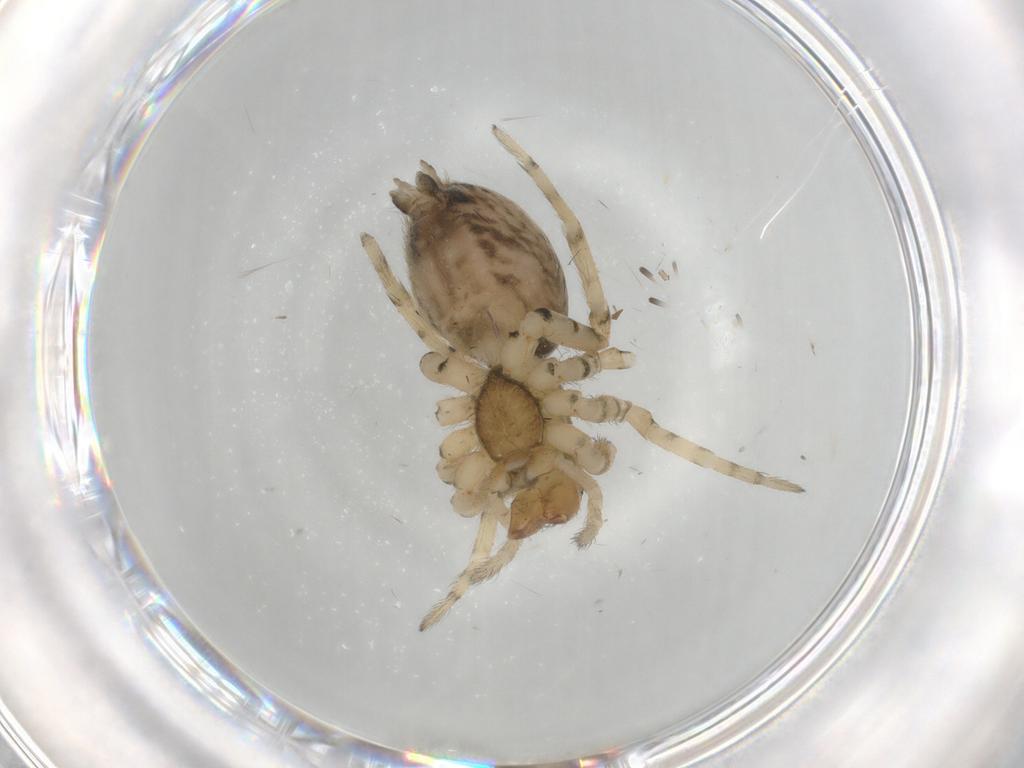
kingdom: Animalia
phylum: Arthropoda
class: Arachnida
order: Araneae
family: Corinnidae
